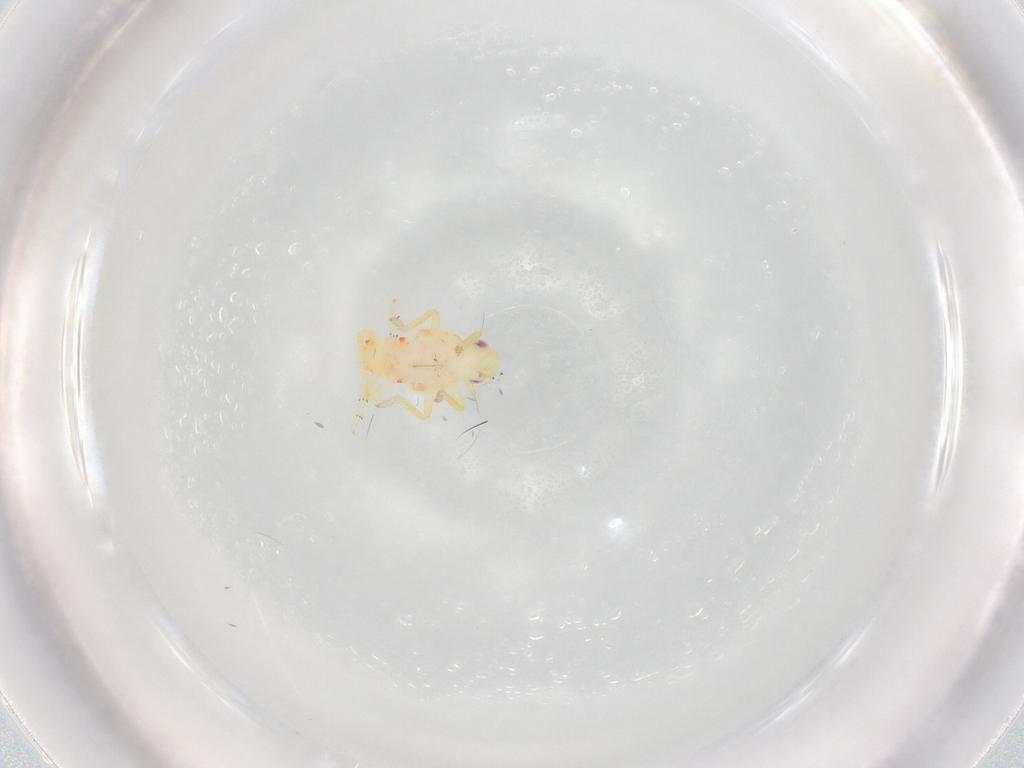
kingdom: Animalia
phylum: Arthropoda
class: Insecta
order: Hemiptera
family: Tropiduchidae
